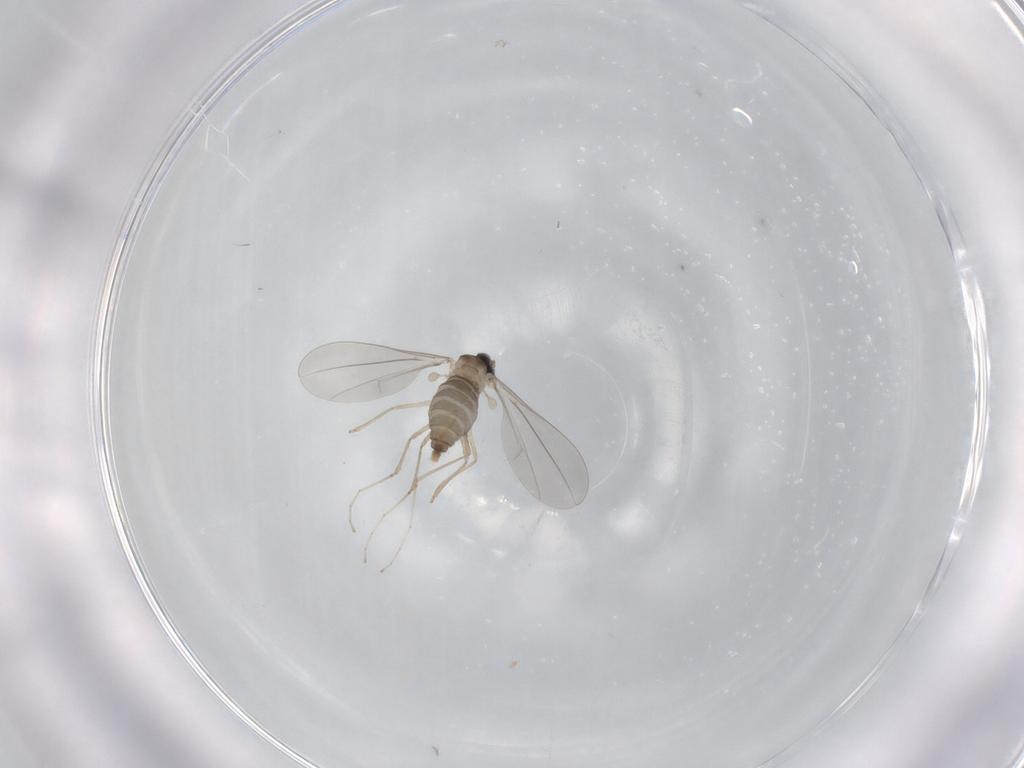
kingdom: Animalia
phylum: Arthropoda
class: Insecta
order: Diptera
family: Cecidomyiidae
